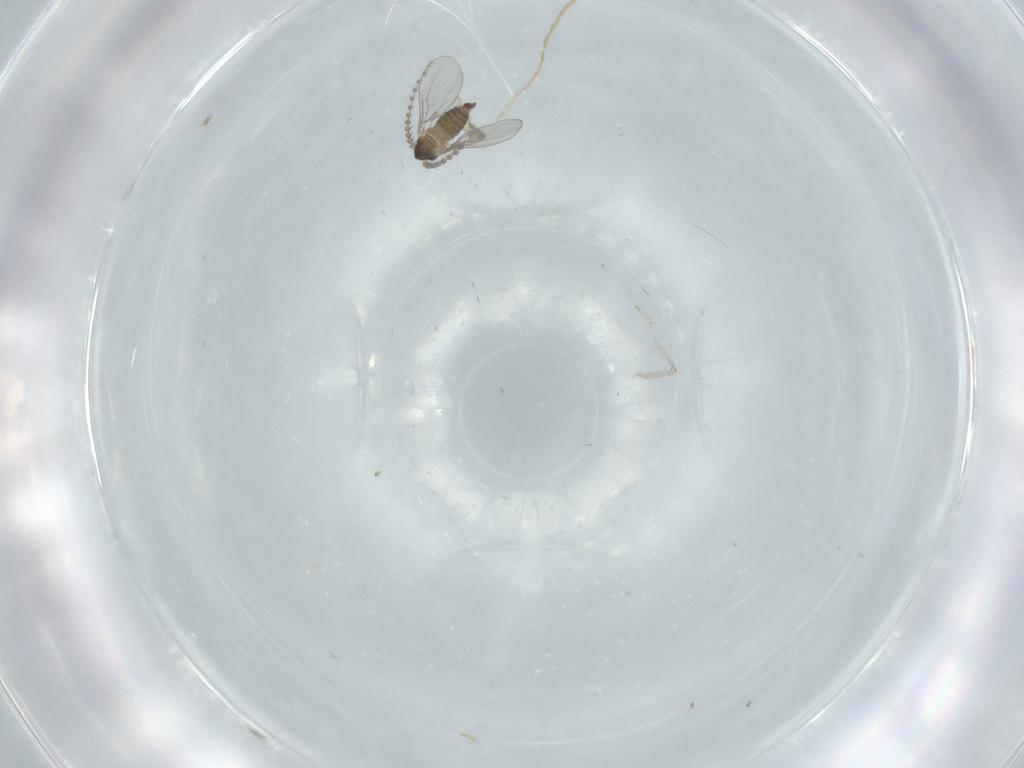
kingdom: Animalia
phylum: Arthropoda
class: Insecta
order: Diptera
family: Cecidomyiidae
